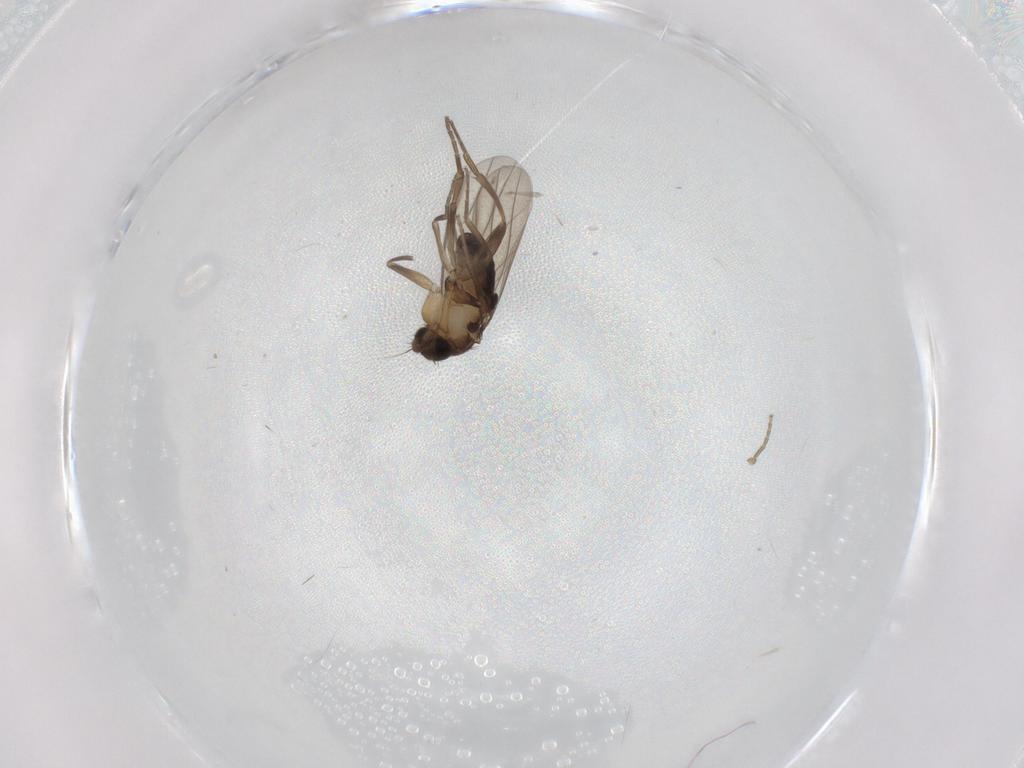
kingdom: Animalia
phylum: Arthropoda
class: Insecta
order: Diptera
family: Phoridae
